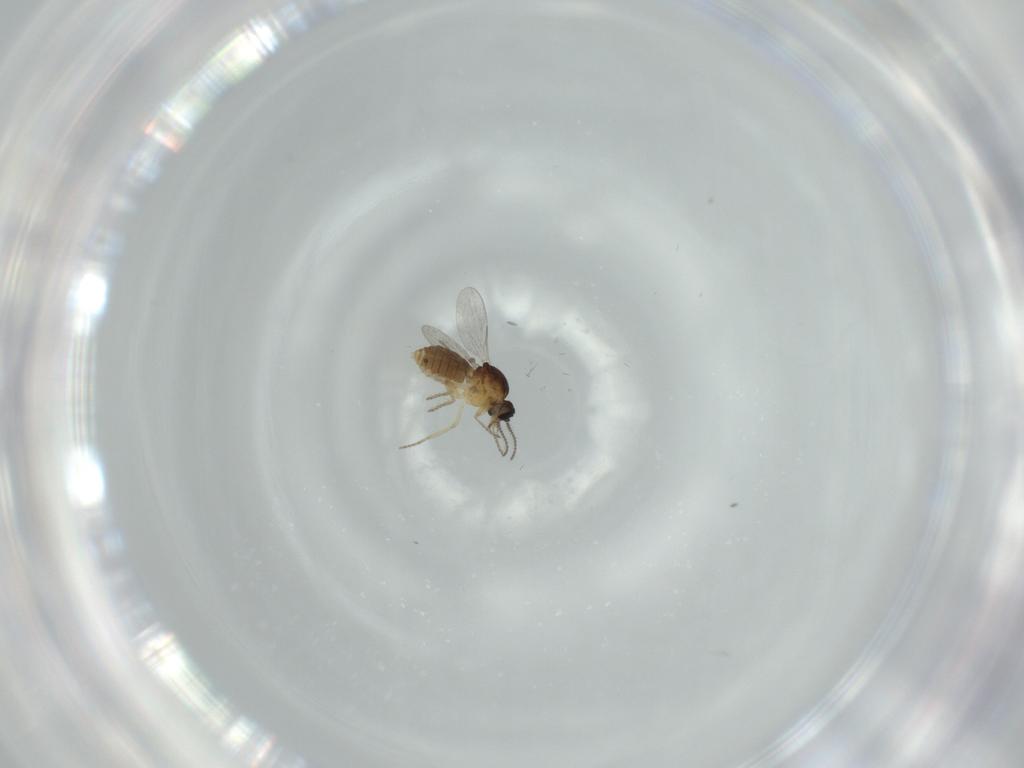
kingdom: Animalia
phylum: Arthropoda
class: Insecta
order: Diptera
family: Ceratopogonidae
